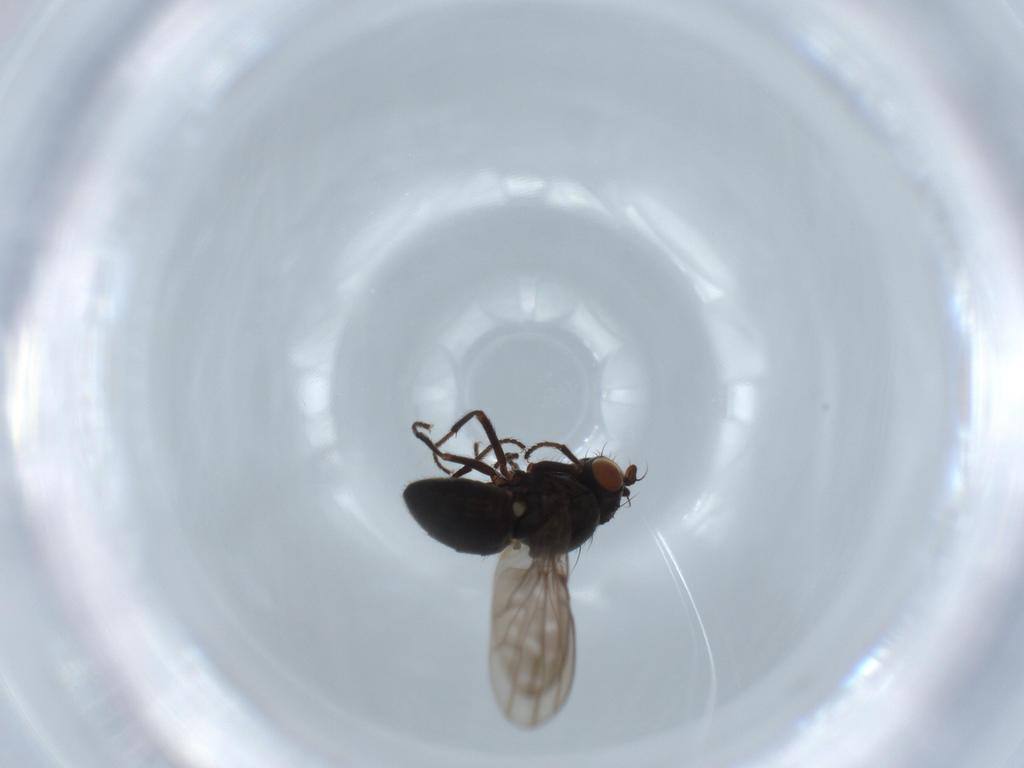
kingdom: Animalia
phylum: Arthropoda
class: Insecta
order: Diptera
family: Ephydridae
